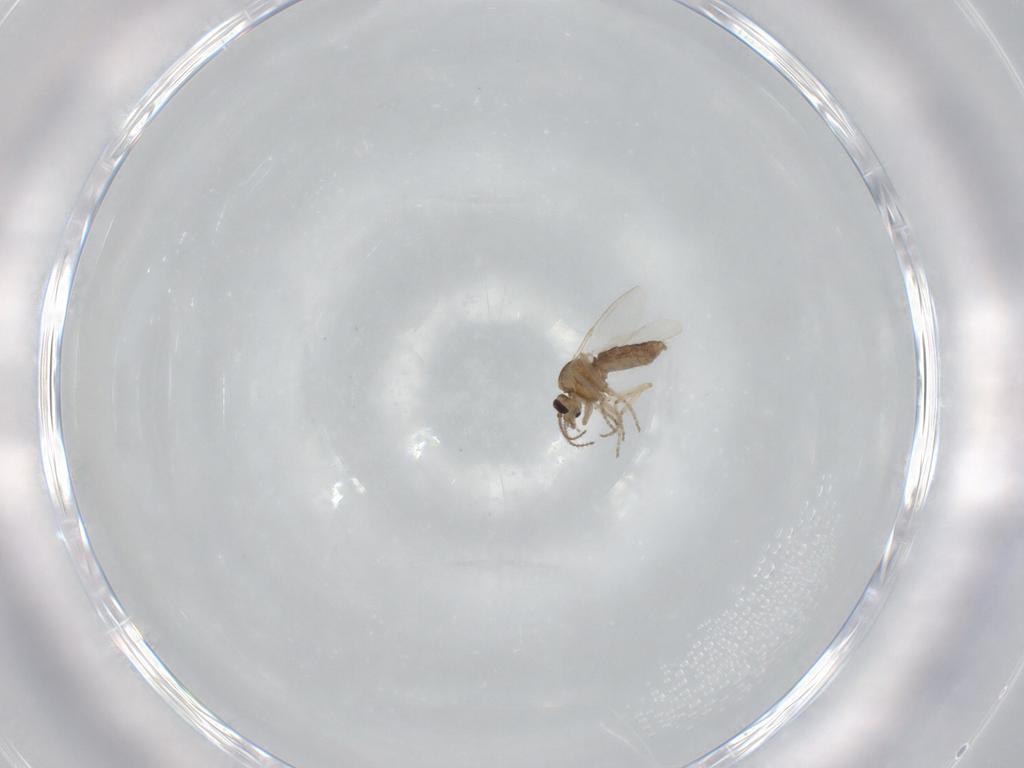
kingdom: Animalia
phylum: Arthropoda
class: Insecta
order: Diptera
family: Ceratopogonidae
